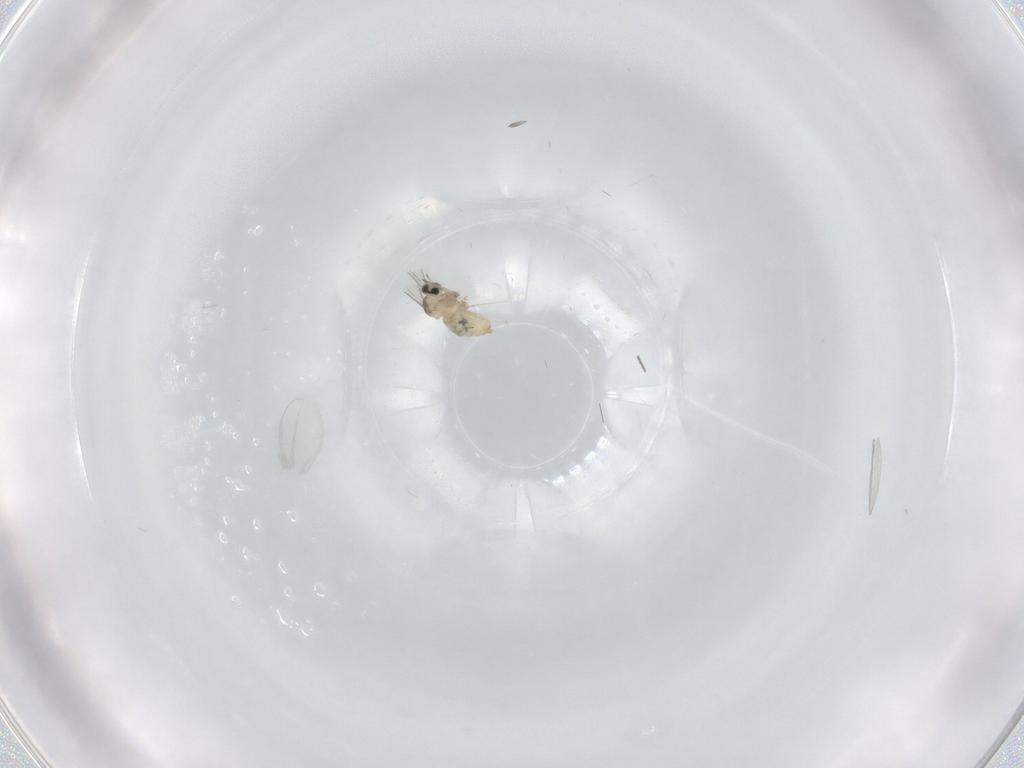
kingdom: Animalia
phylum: Arthropoda
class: Insecta
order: Diptera
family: Cecidomyiidae
